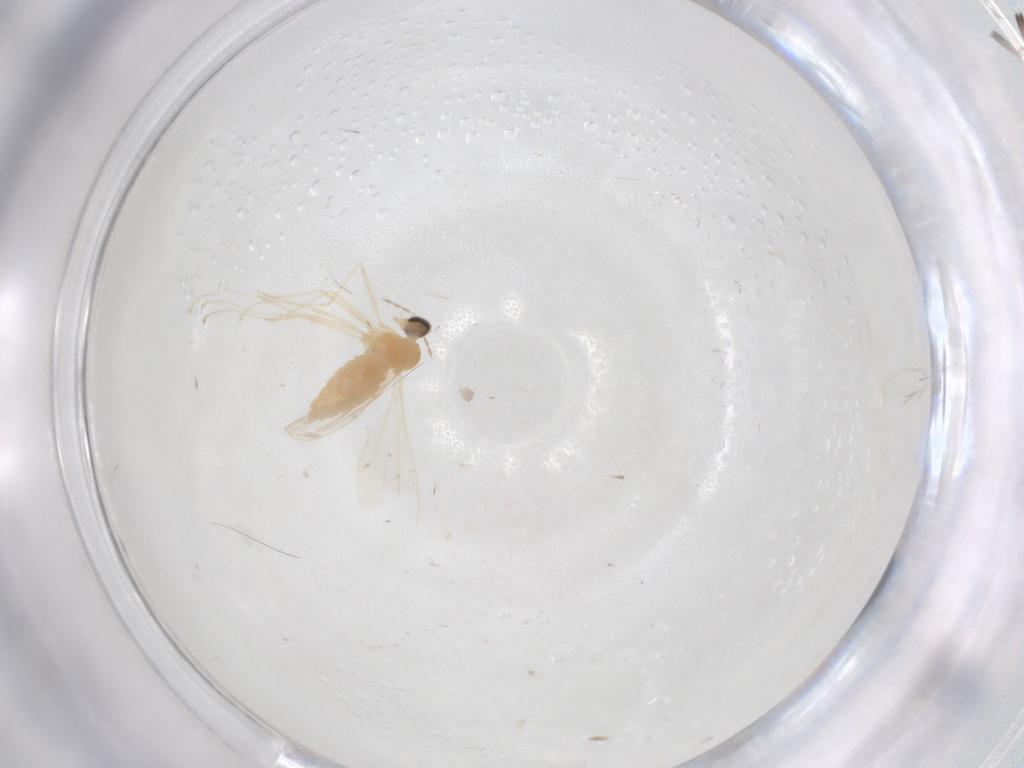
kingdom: Animalia
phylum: Arthropoda
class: Insecta
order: Diptera
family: Cecidomyiidae
